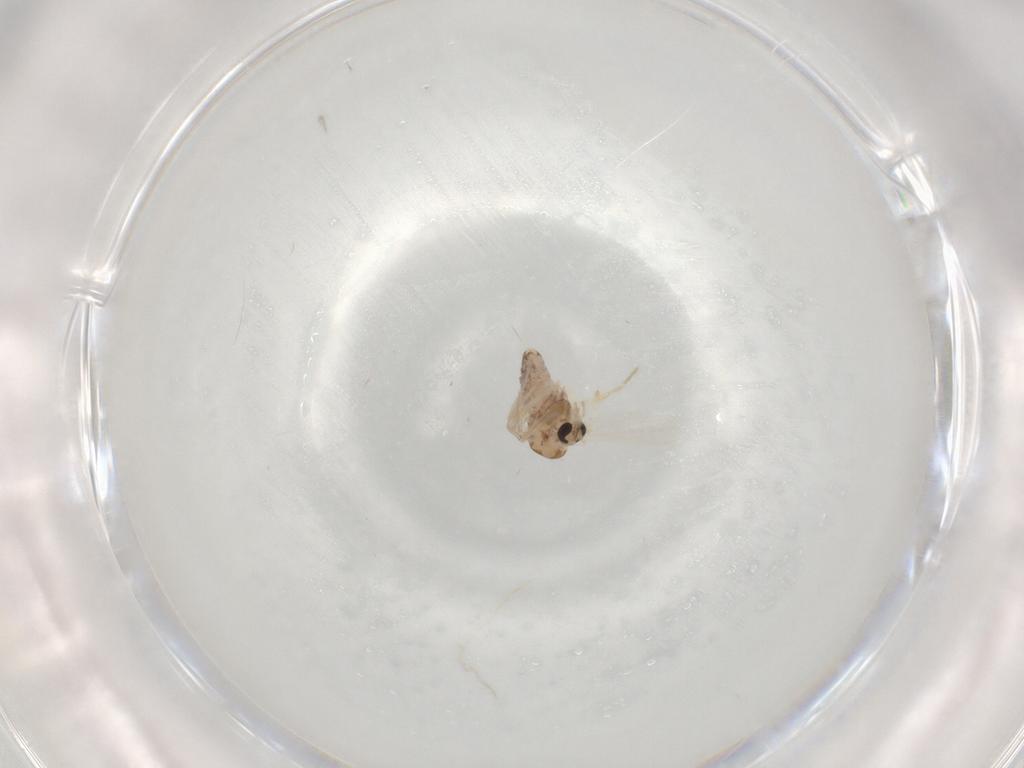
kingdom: Animalia
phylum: Arthropoda
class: Insecta
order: Diptera
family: Chironomidae
